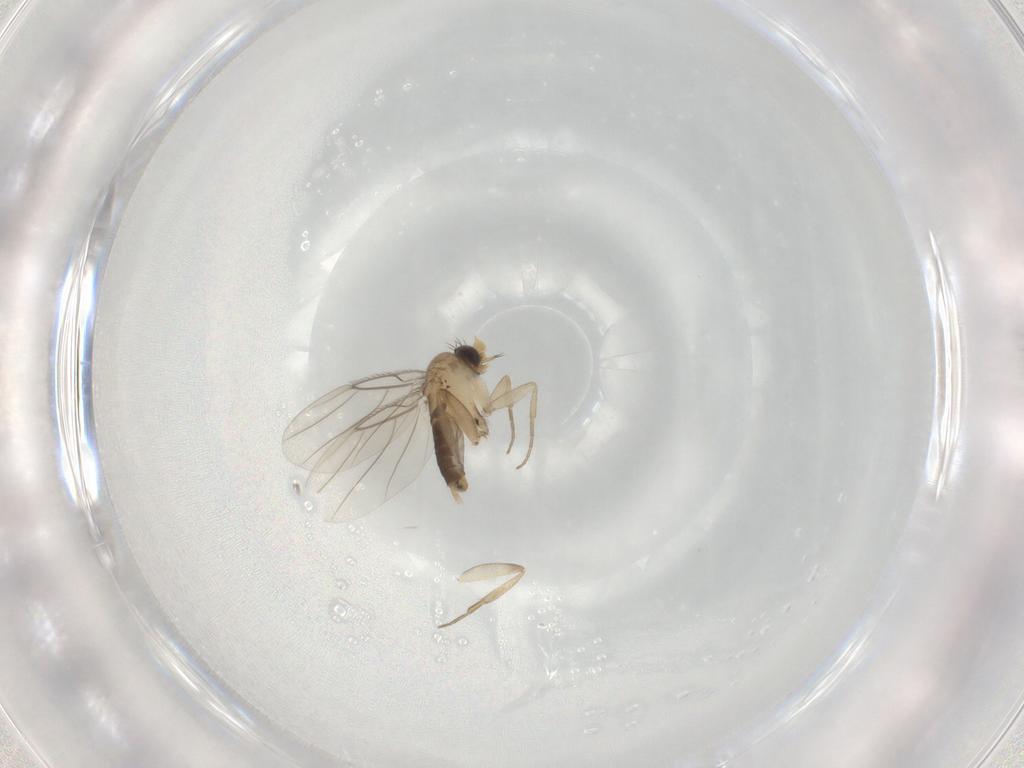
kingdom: Animalia
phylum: Arthropoda
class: Insecta
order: Diptera
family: Phoridae
